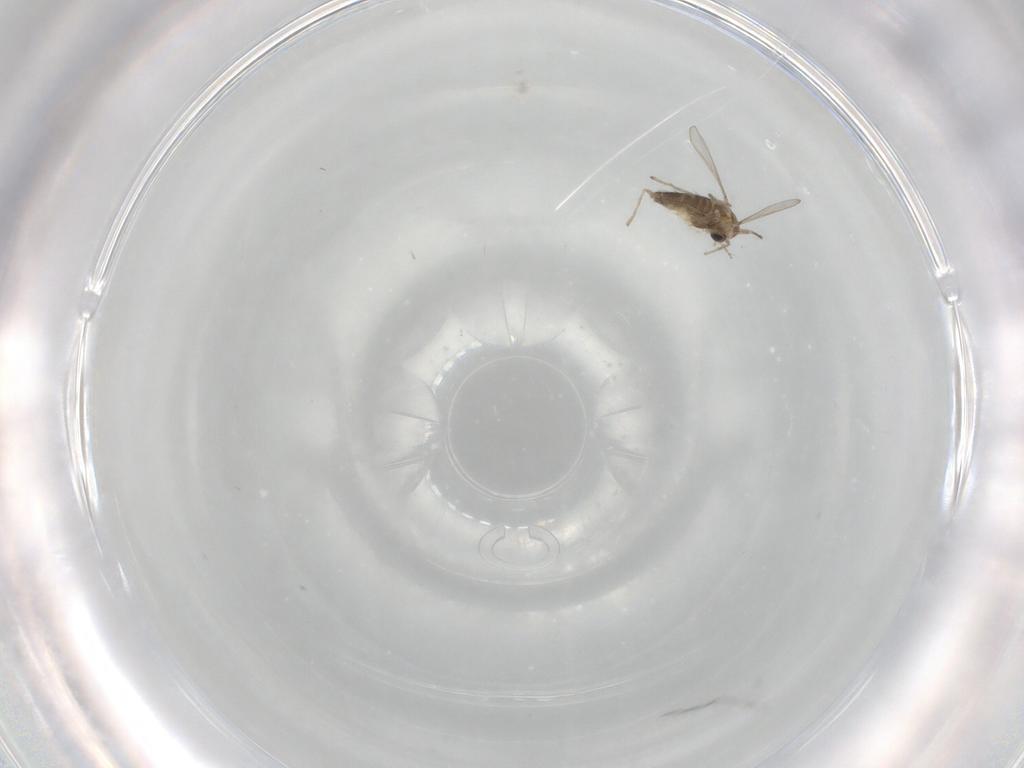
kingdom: Animalia
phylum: Arthropoda
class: Insecta
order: Diptera
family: Chironomidae
